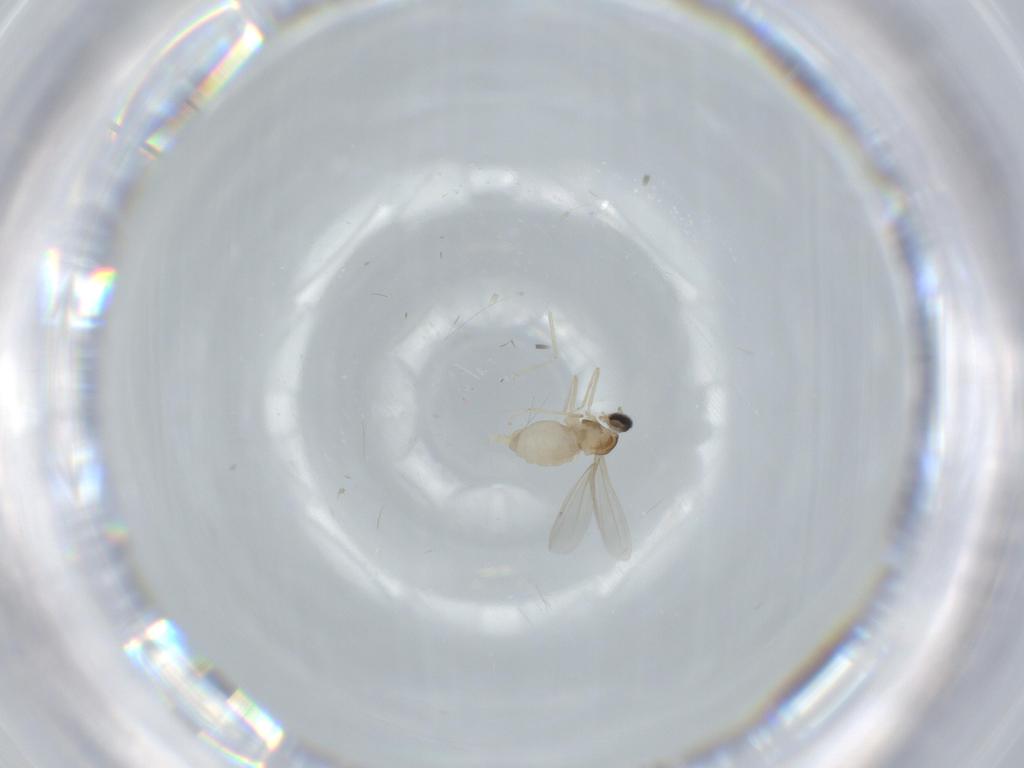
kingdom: Animalia
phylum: Arthropoda
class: Insecta
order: Diptera
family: Cecidomyiidae
